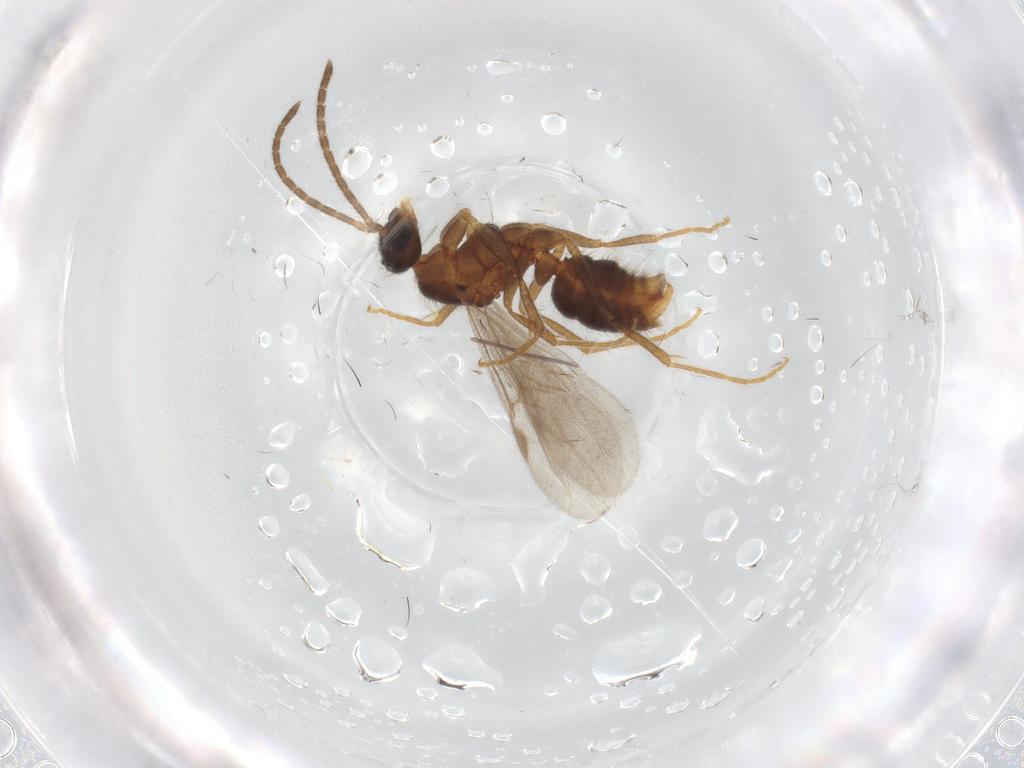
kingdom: Animalia
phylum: Arthropoda
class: Insecta
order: Hymenoptera
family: Formicidae
